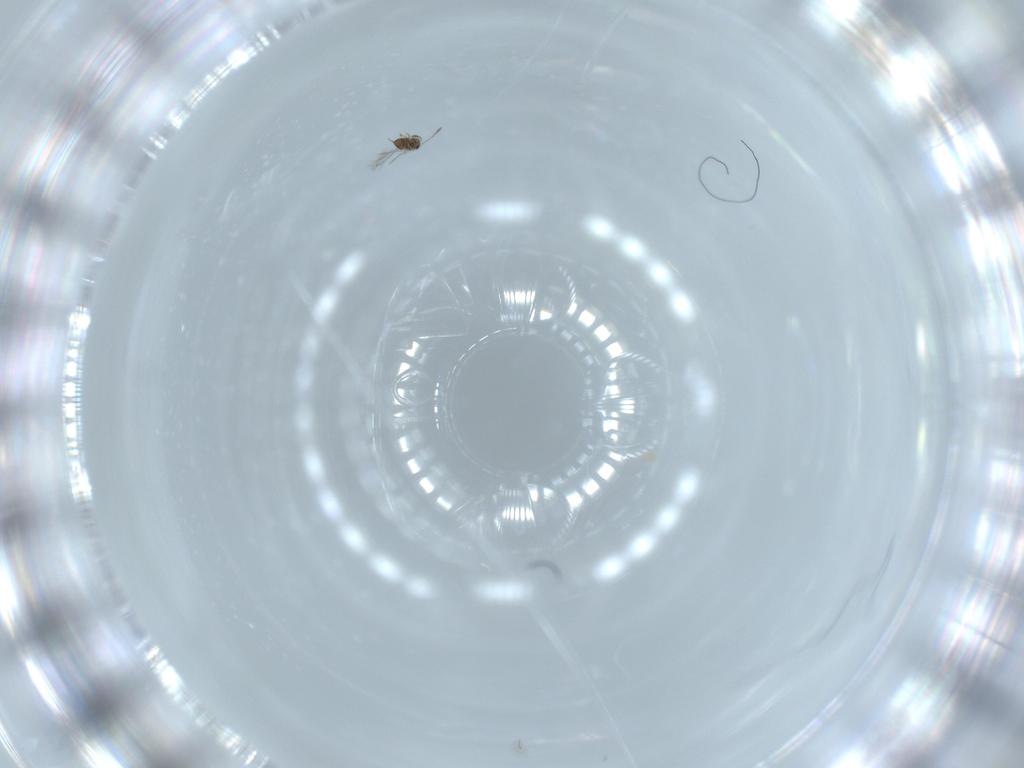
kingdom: Animalia
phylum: Arthropoda
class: Insecta
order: Diptera
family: Cecidomyiidae
